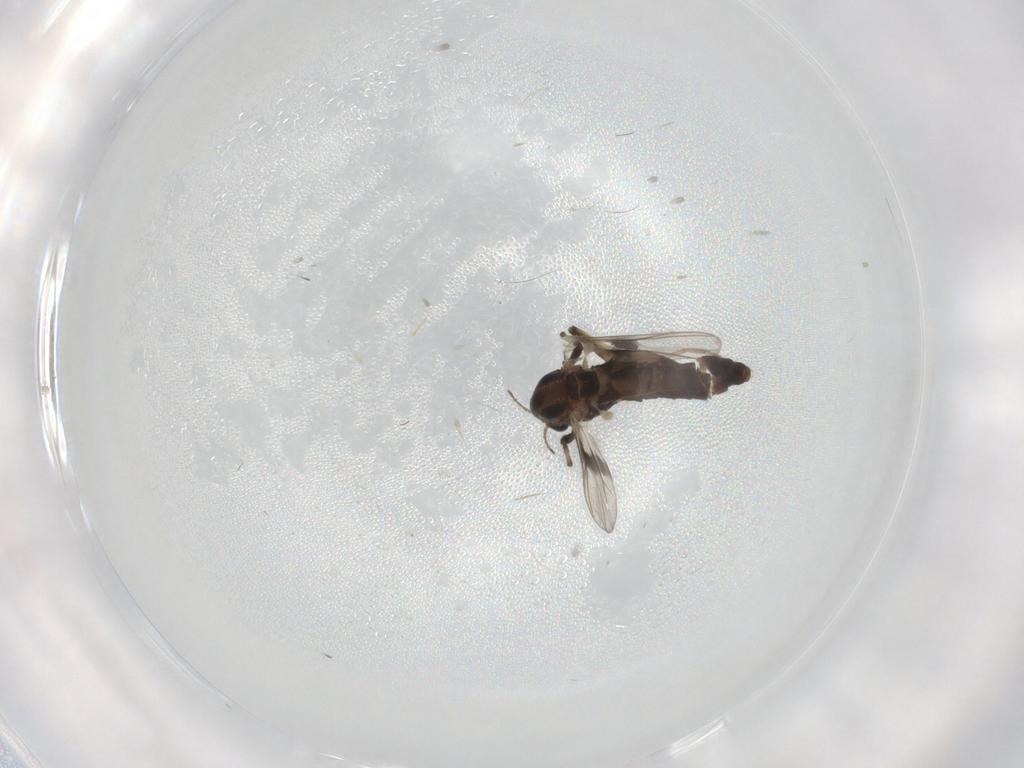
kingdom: Animalia
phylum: Arthropoda
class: Insecta
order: Diptera
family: Chironomidae
